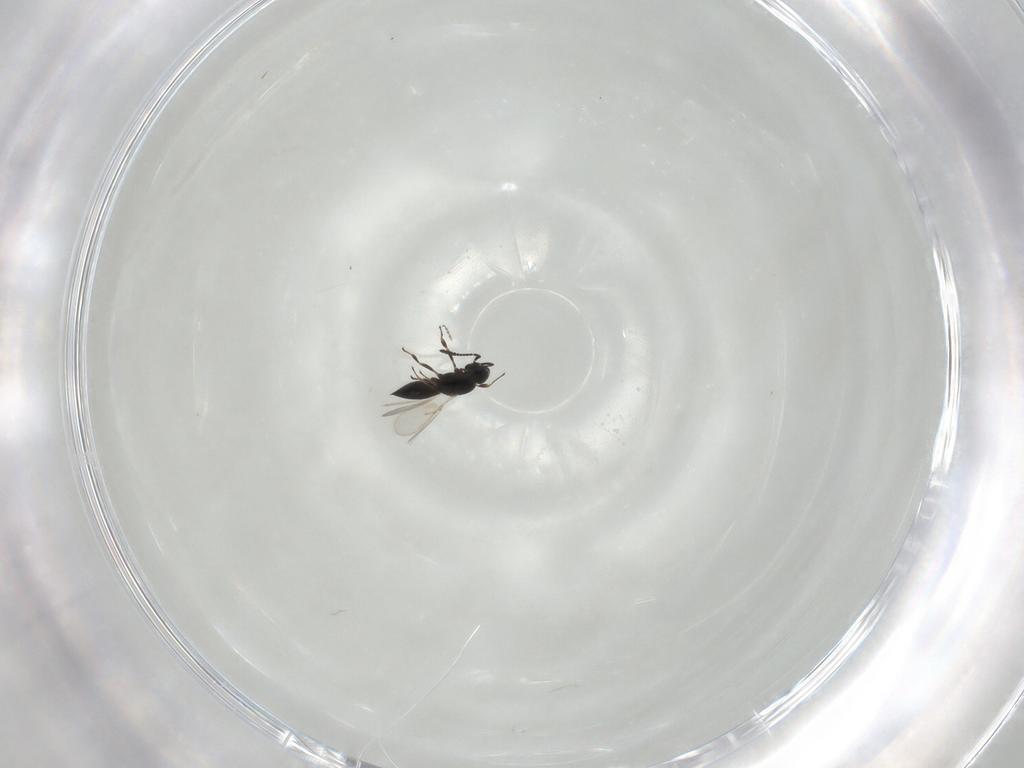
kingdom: Animalia
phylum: Arthropoda
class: Insecta
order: Hymenoptera
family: Scelionidae
